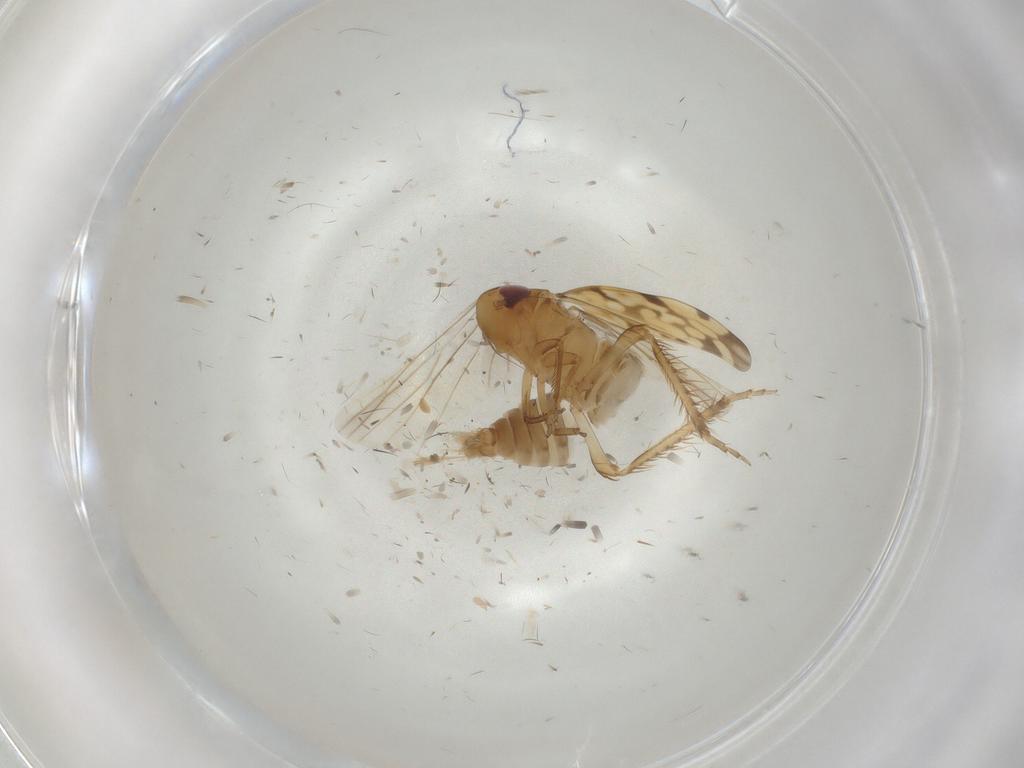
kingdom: Animalia
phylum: Arthropoda
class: Insecta
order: Hemiptera
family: Cicadellidae
